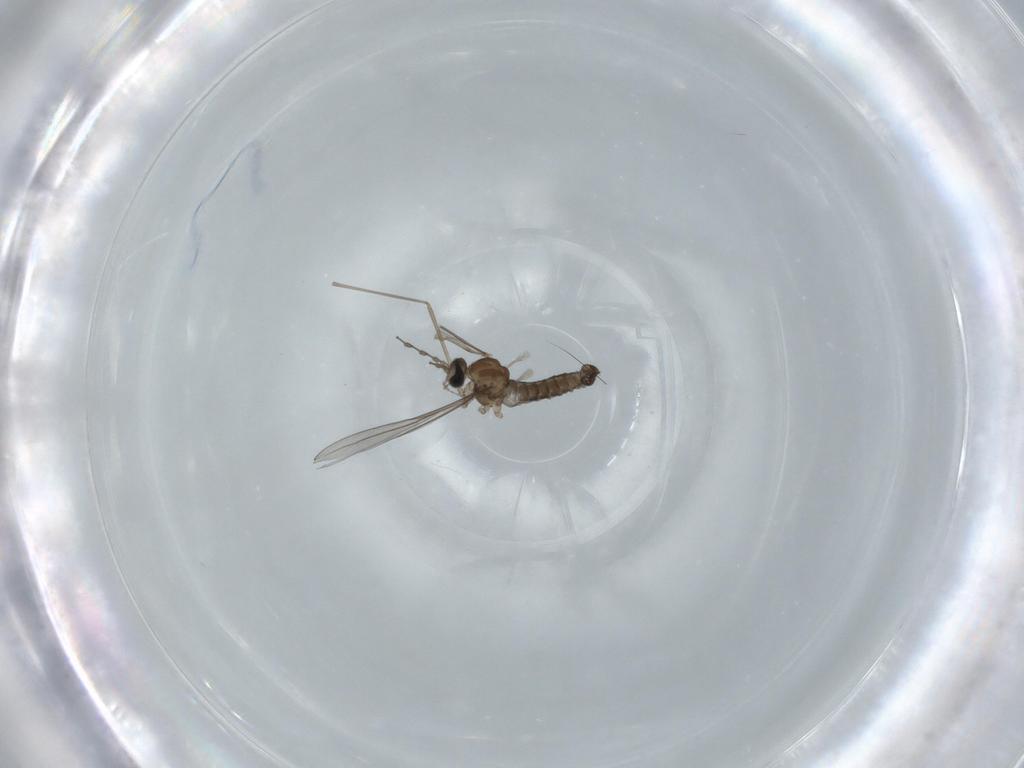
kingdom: Animalia
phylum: Arthropoda
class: Insecta
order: Diptera
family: Cecidomyiidae
